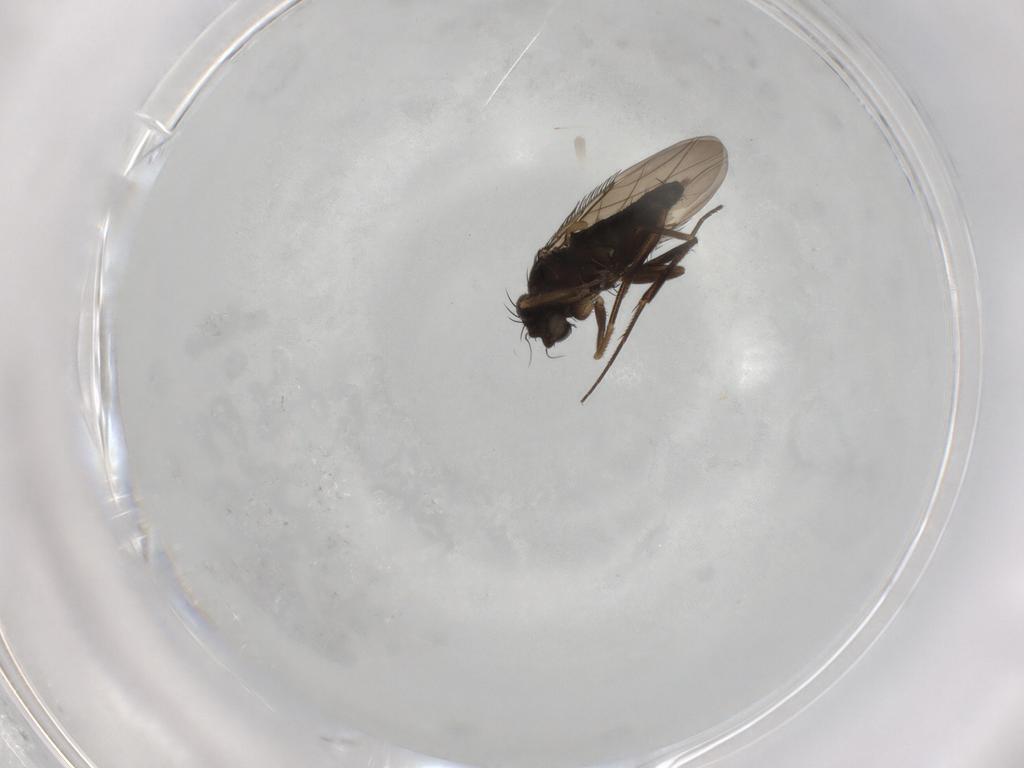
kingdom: Animalia
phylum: Arthropoda
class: Insecta
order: Diptera
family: Phoridae
